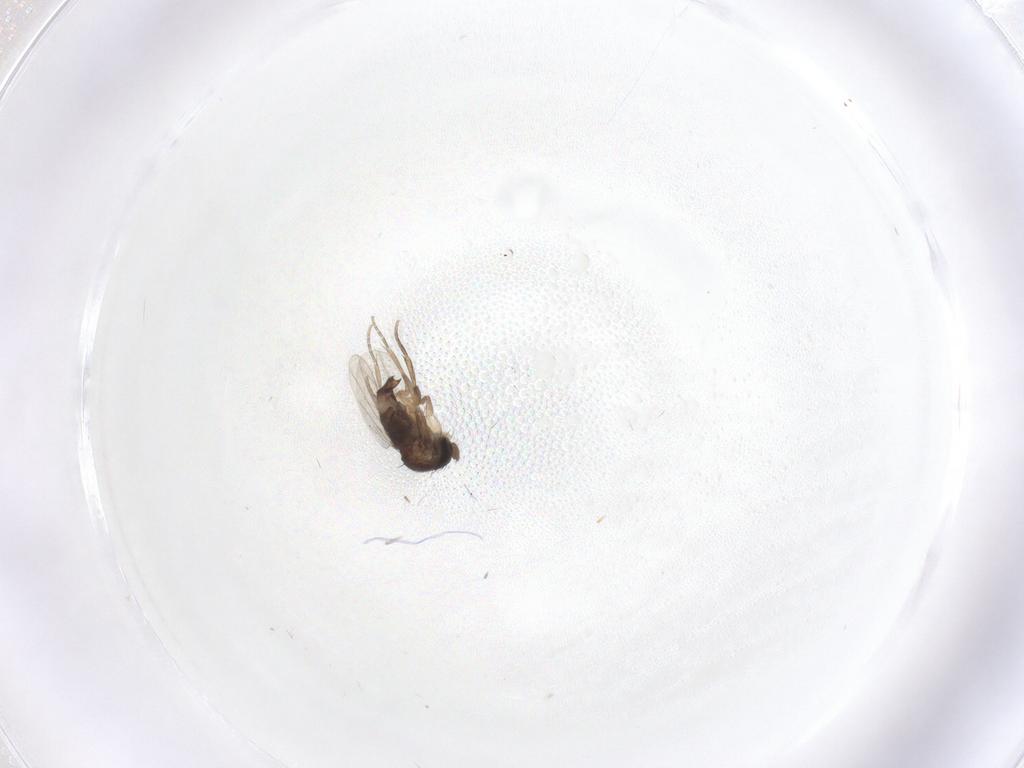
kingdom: Animalia
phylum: Arthropoda
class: Insecta
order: Diptera
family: Phoridae
